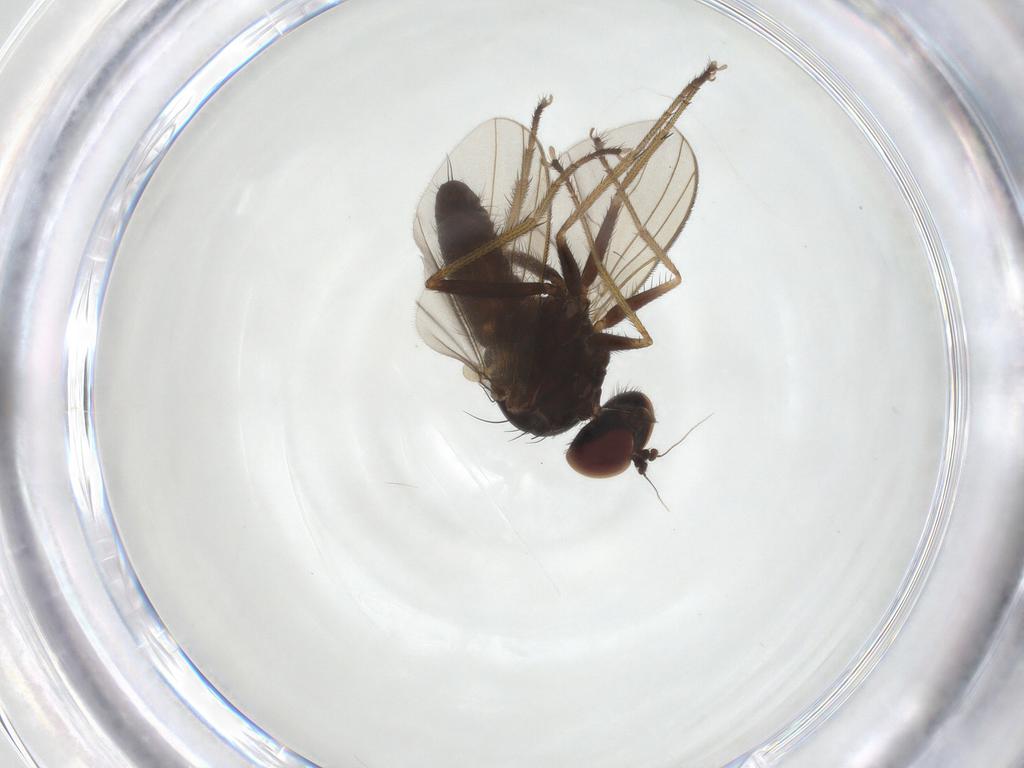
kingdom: Animalia
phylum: Arthropoda
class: Insecta
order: Diptera
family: Dolichopodidae
